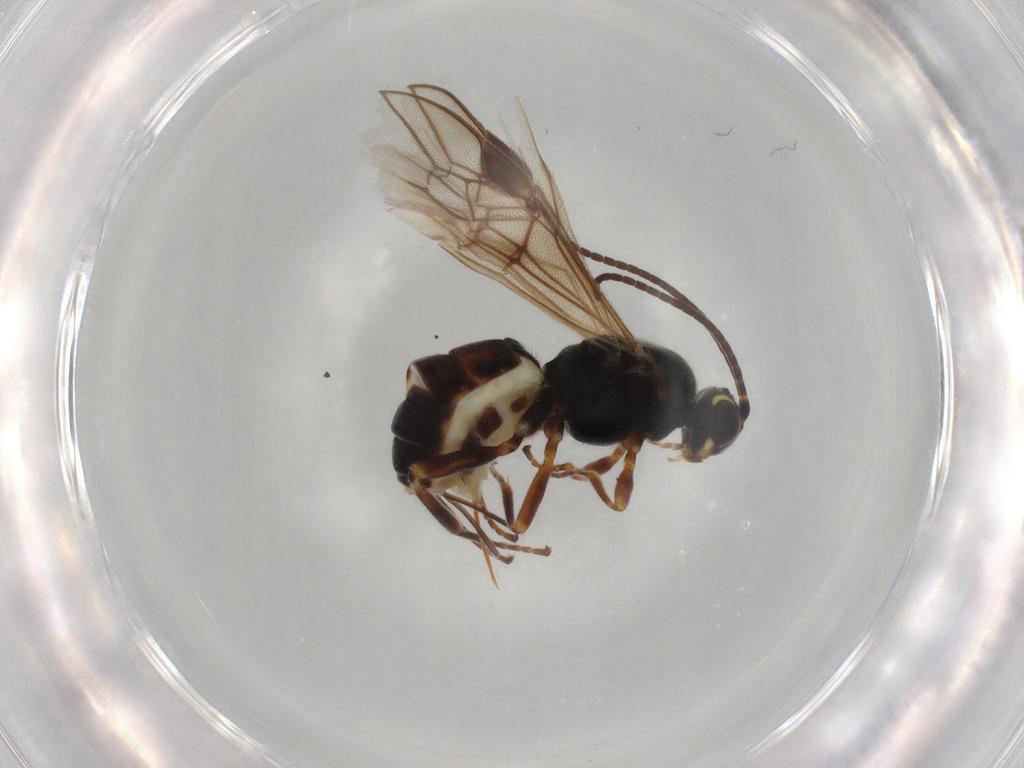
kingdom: Animalia
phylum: Arthropoda
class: Insecta
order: Hymenoptera
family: Braconidae
